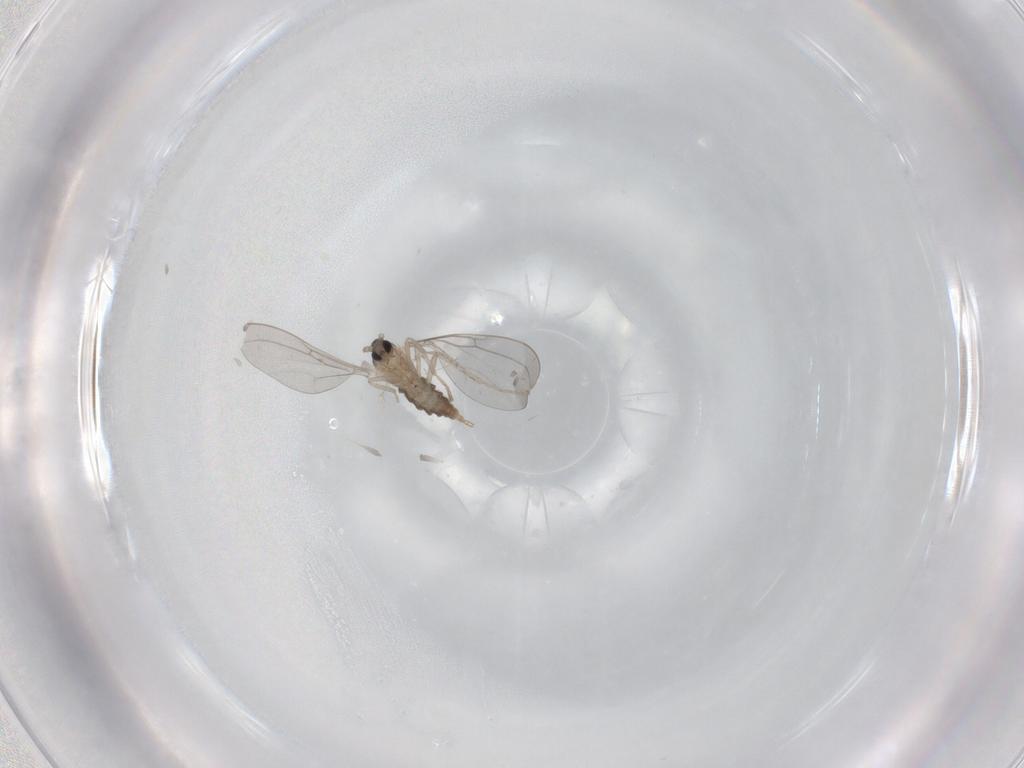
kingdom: Animalia
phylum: Arthropoda
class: Insecta
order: Diptera
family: Cecidomyiidae
